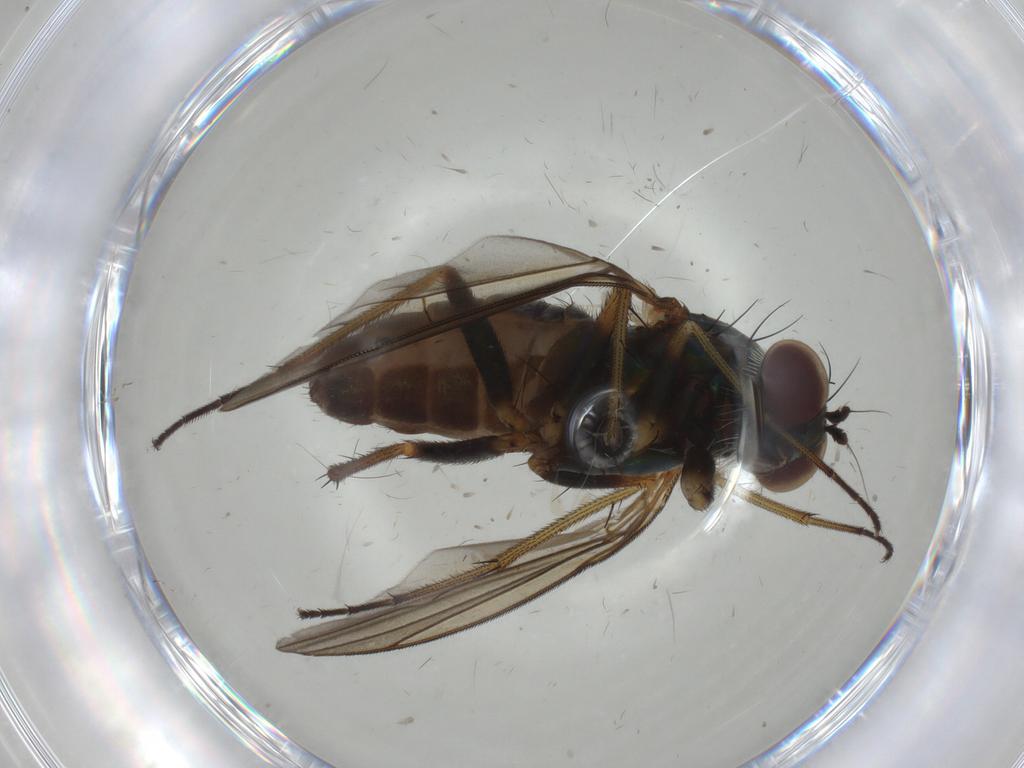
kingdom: Animalia
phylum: Arthropoda
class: Insecta
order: Diptera
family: Dolichopodidae
